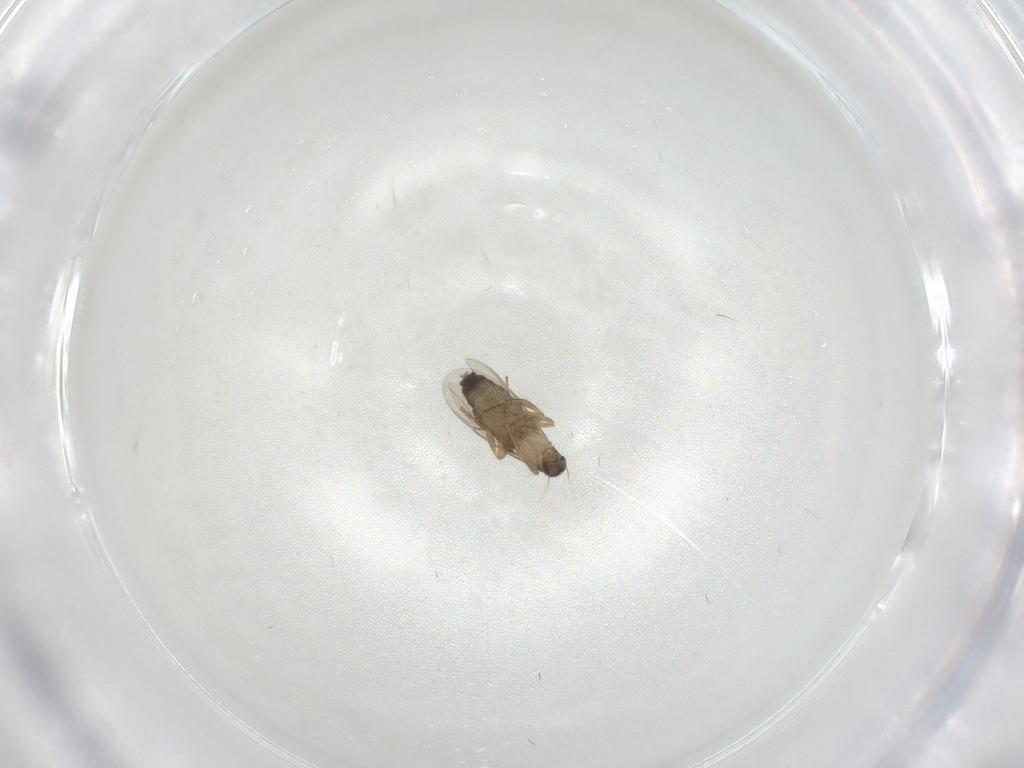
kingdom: Animalia
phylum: Arthropoda
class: Insecta
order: Diptera
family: Phoridae
